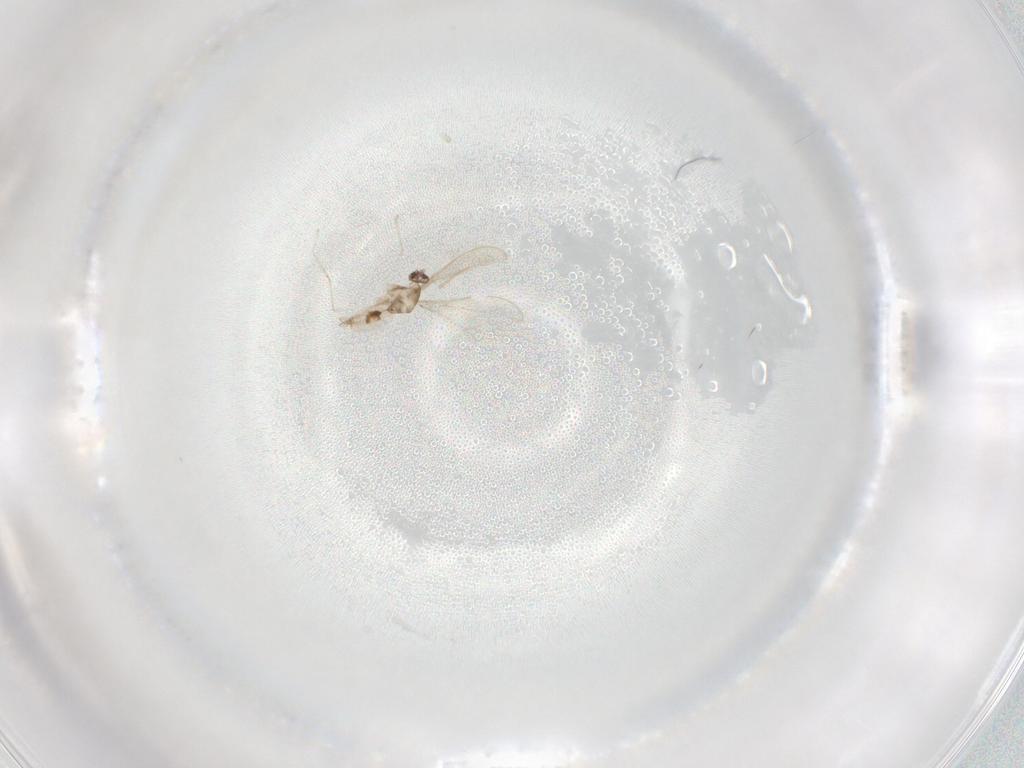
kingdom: Animalia
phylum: Arthropoda
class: Insecta
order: Diptera
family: Cecidomyiidae
